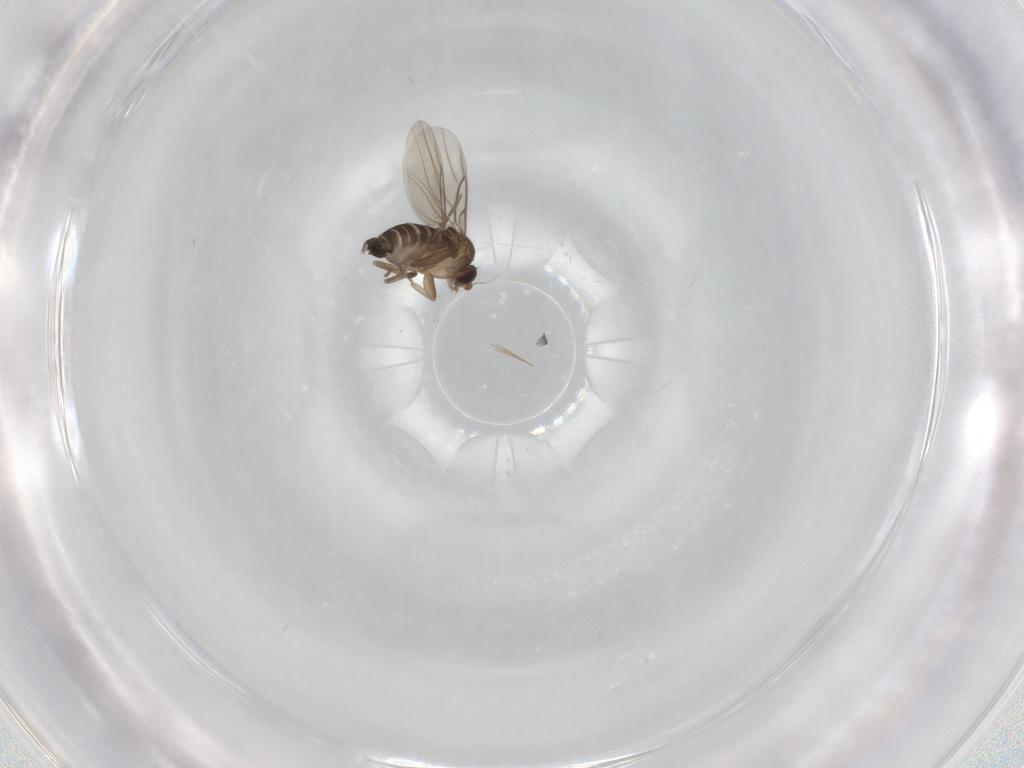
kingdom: Animalia
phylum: Arthropoda
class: Insecta
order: Diptera
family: Phoridae
